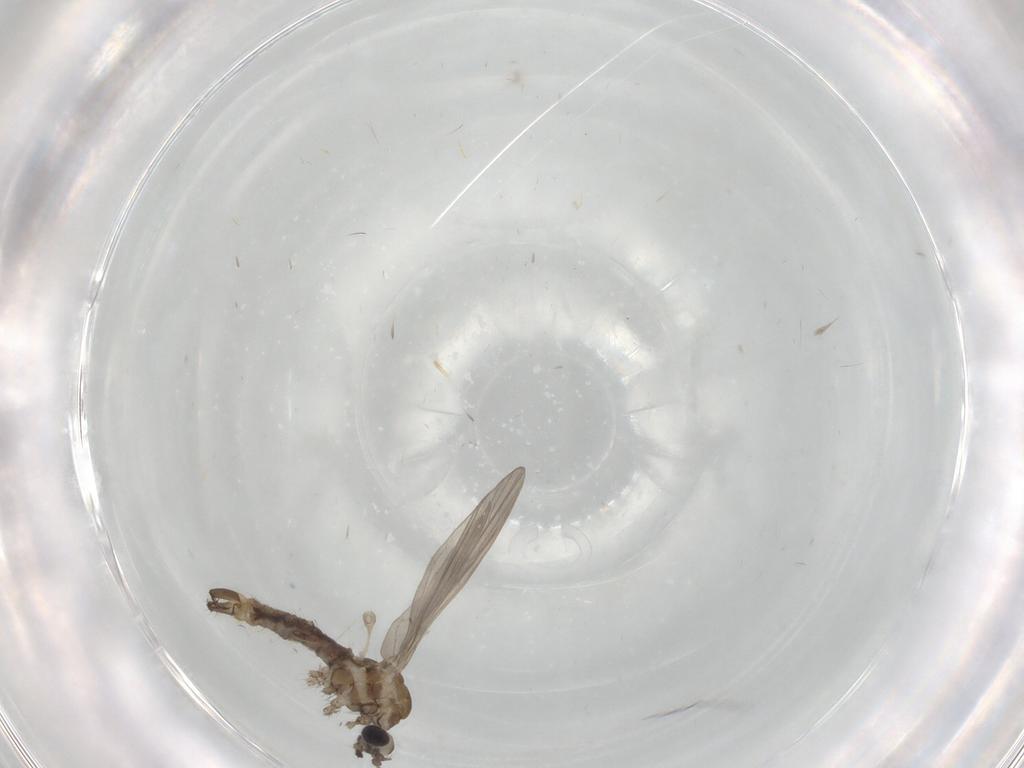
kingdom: Animalia
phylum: Arthropoda
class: Insecta
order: Diptera
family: Limoniidae
